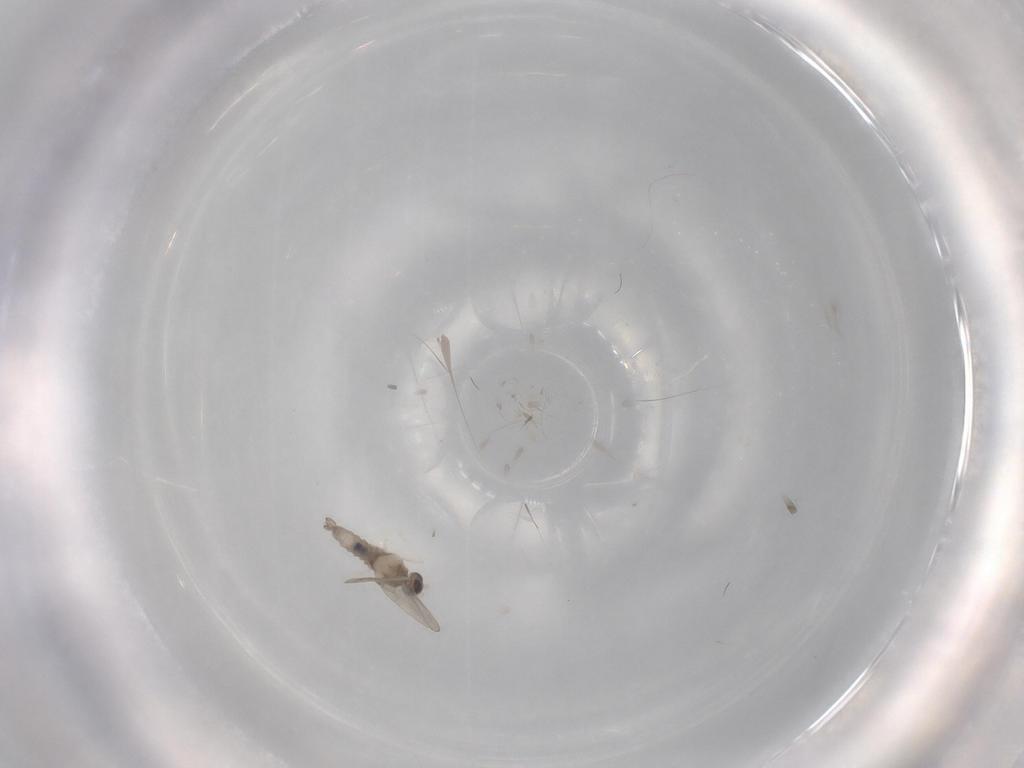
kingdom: Animalia
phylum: Arthropoda
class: Insecta
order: Diptera
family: Cecidomyiidae
